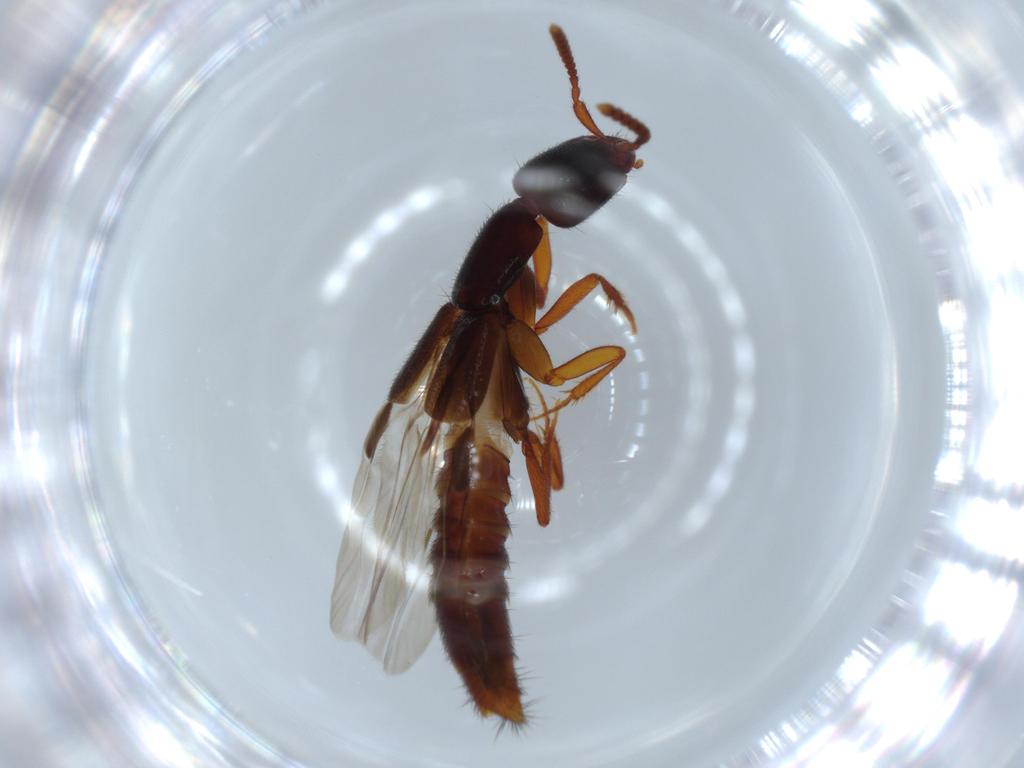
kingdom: Animalia
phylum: Arthropoda
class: Insecta
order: Coleoptera
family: Staphylinidae
